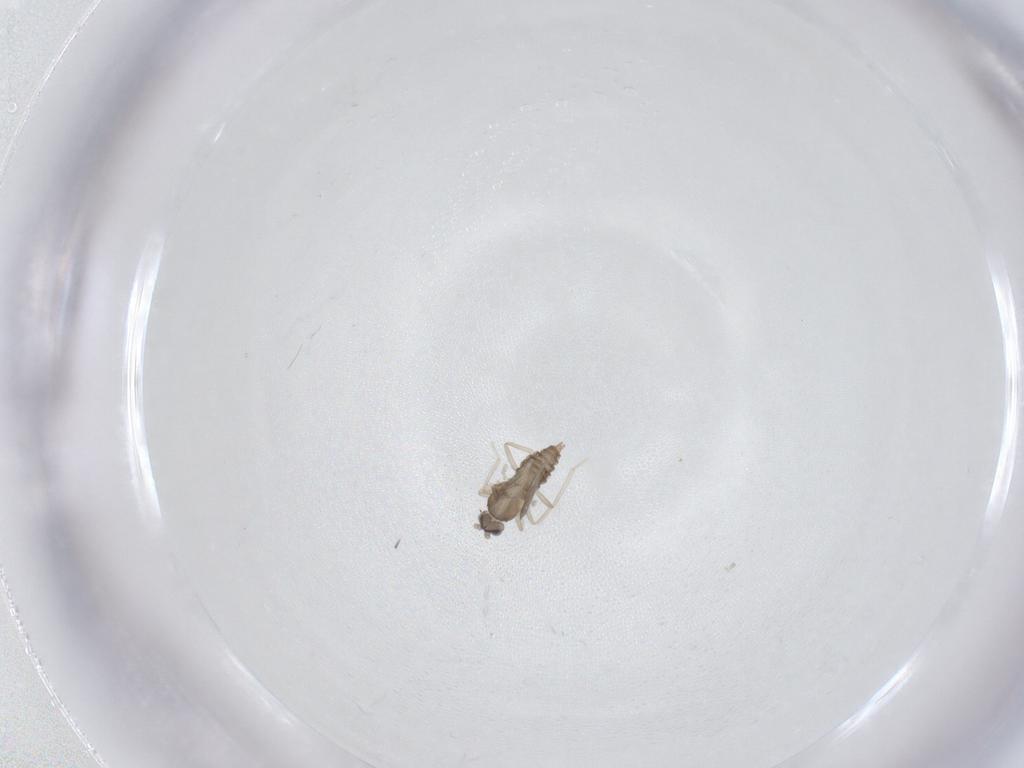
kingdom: Animalia
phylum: Arthropoda
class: Insecta
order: Diptera
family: Cecidomyiidae
